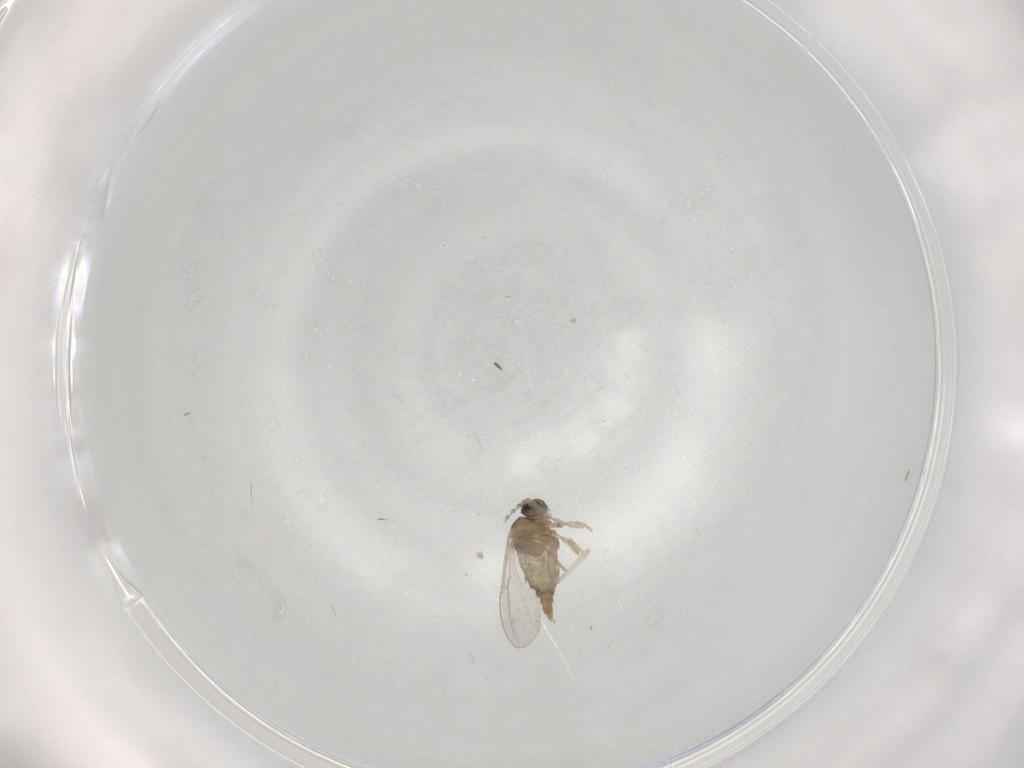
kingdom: Animalia
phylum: Arthropoda
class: Insecta
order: Diptera
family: Cecidomyiidae
